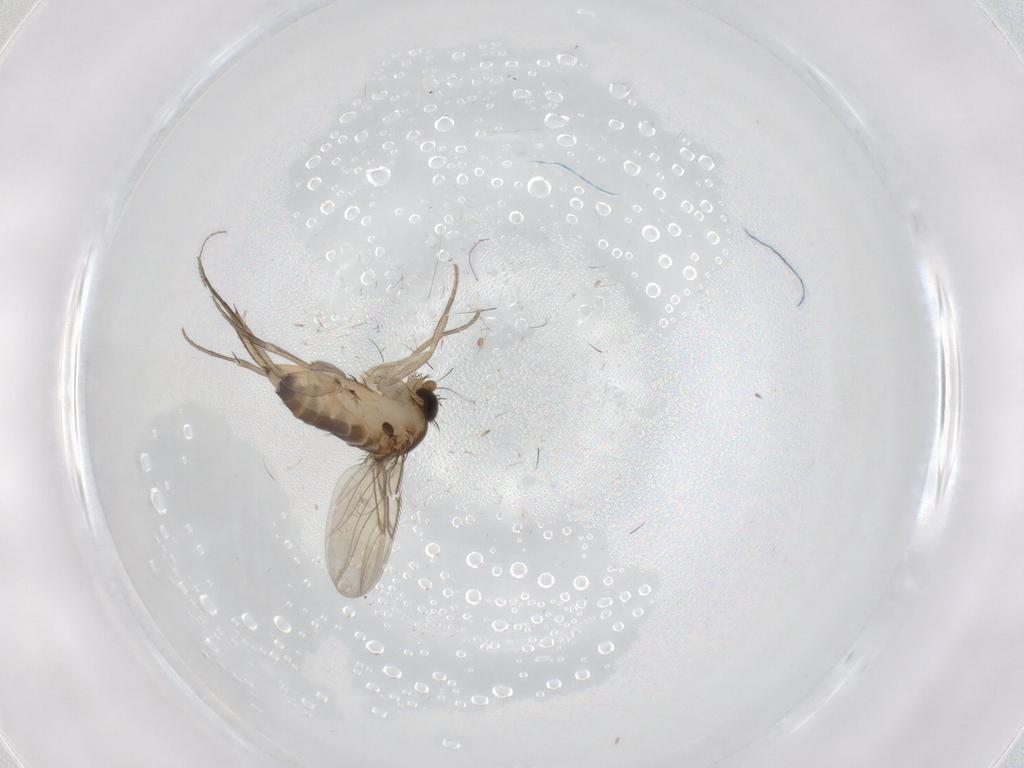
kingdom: Animalia
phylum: Arthropoda
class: Insecta
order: Diptera
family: Phoridae
